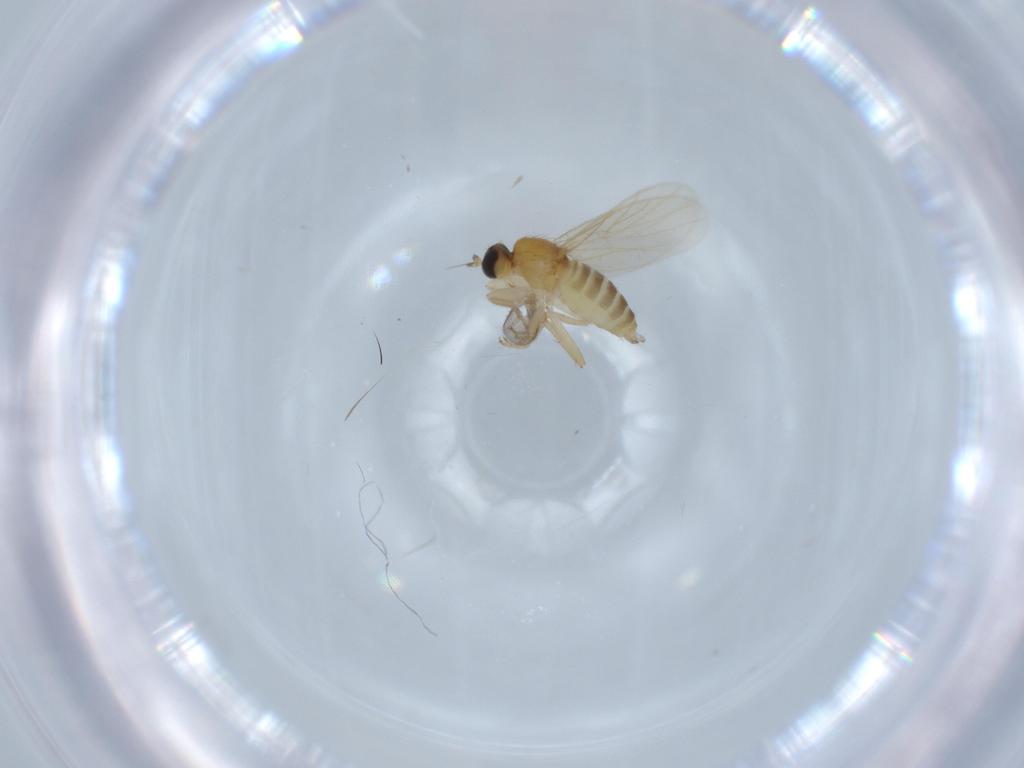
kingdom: Animalia
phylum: Arthropoda
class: Insecta
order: Diptera
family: Hybotidae
